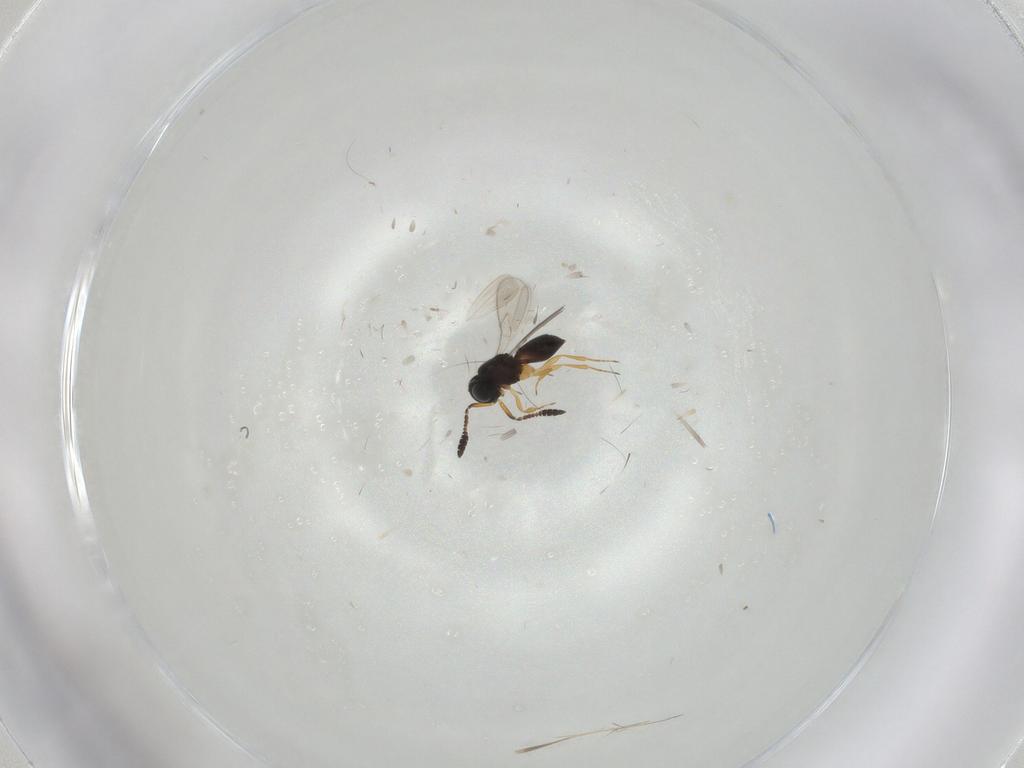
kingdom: Animalia
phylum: Arthropoda
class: Insecta
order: Hymenoptera
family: Scelionidae
